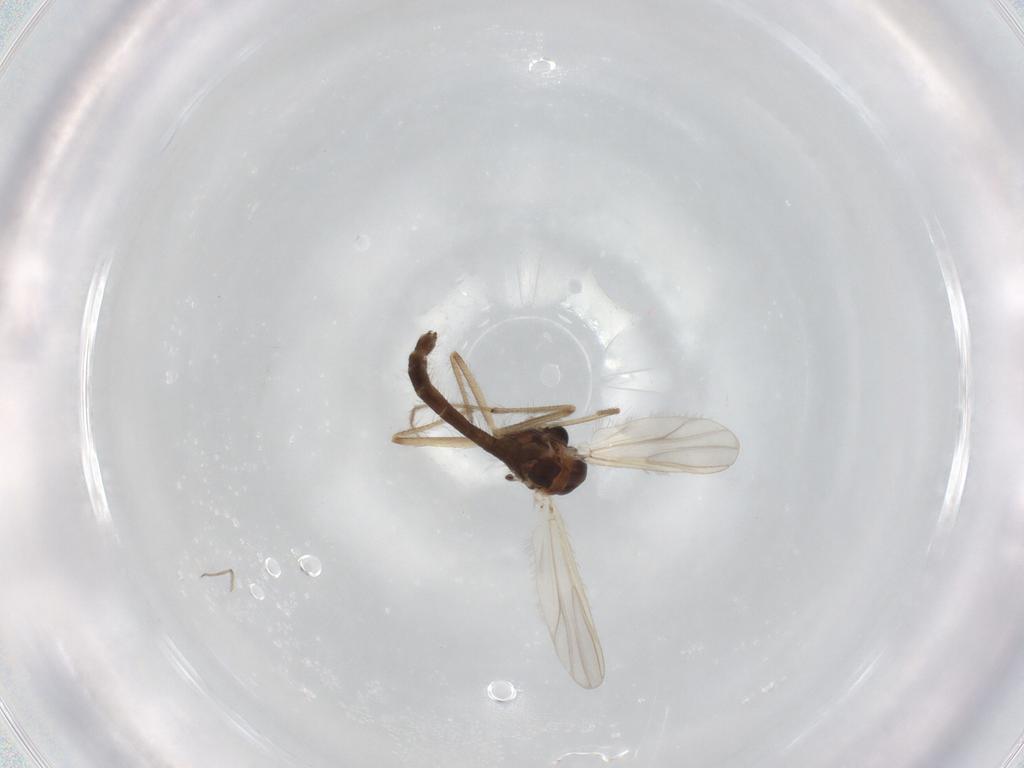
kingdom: Animalia
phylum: Arthropoda
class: Insecta
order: Diptera
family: Chironomidae
